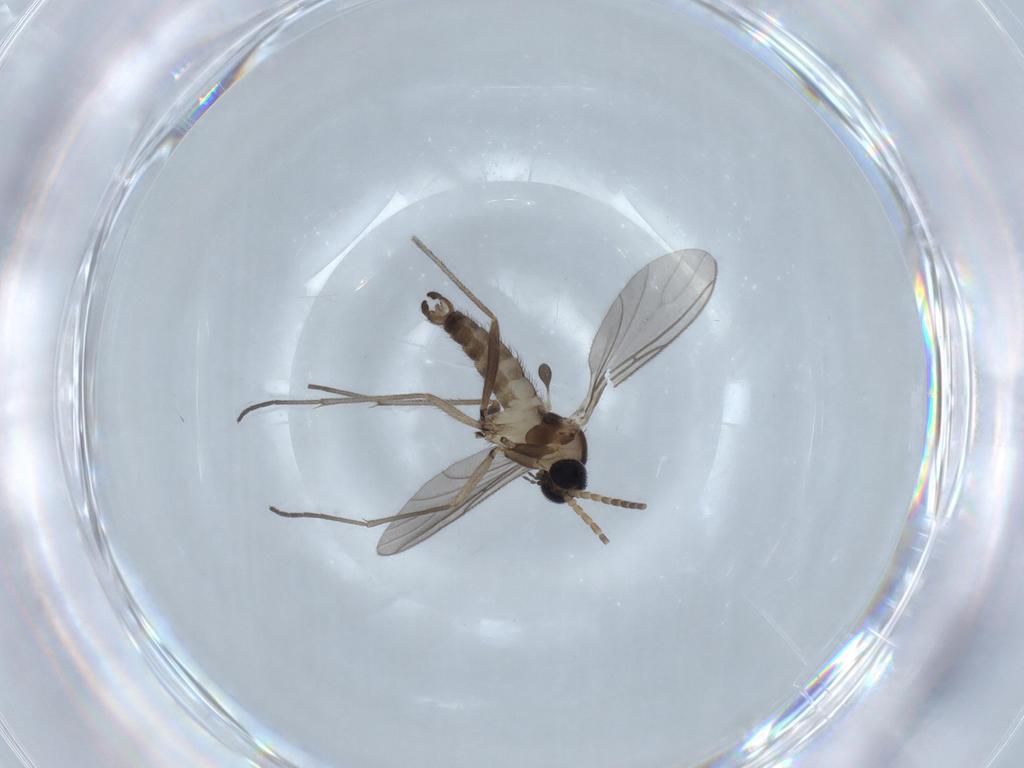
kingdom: Animalia
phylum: Arthropoda
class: Insecta
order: Diptera
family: Sciaridae
